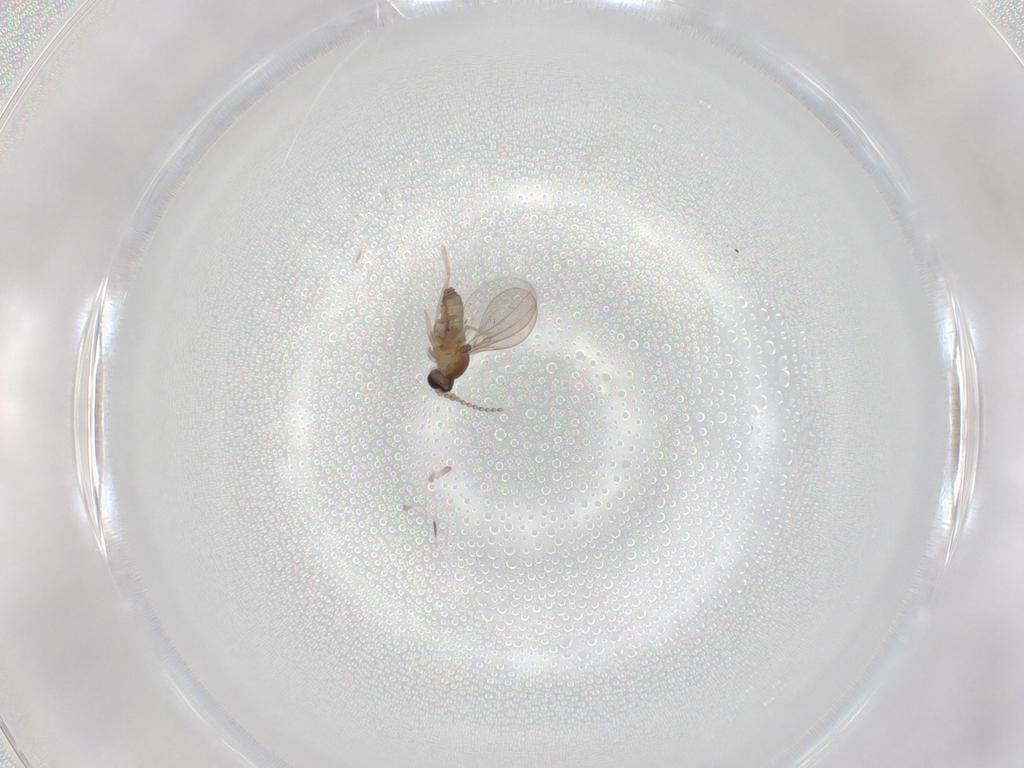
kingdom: Animalia
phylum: Arthropoda
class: Insecta
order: Diptera
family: Cecidomyiidae
